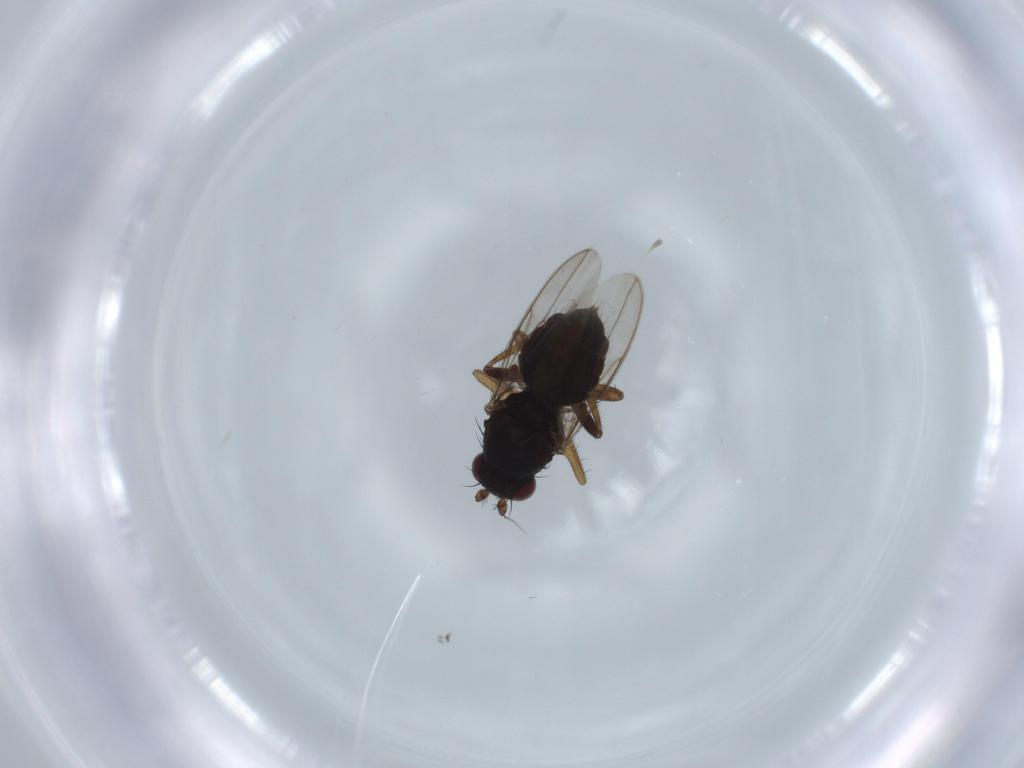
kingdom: Animalia
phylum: Arthropoda
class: Insecta
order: Diptera
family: Sphaeroceridae
